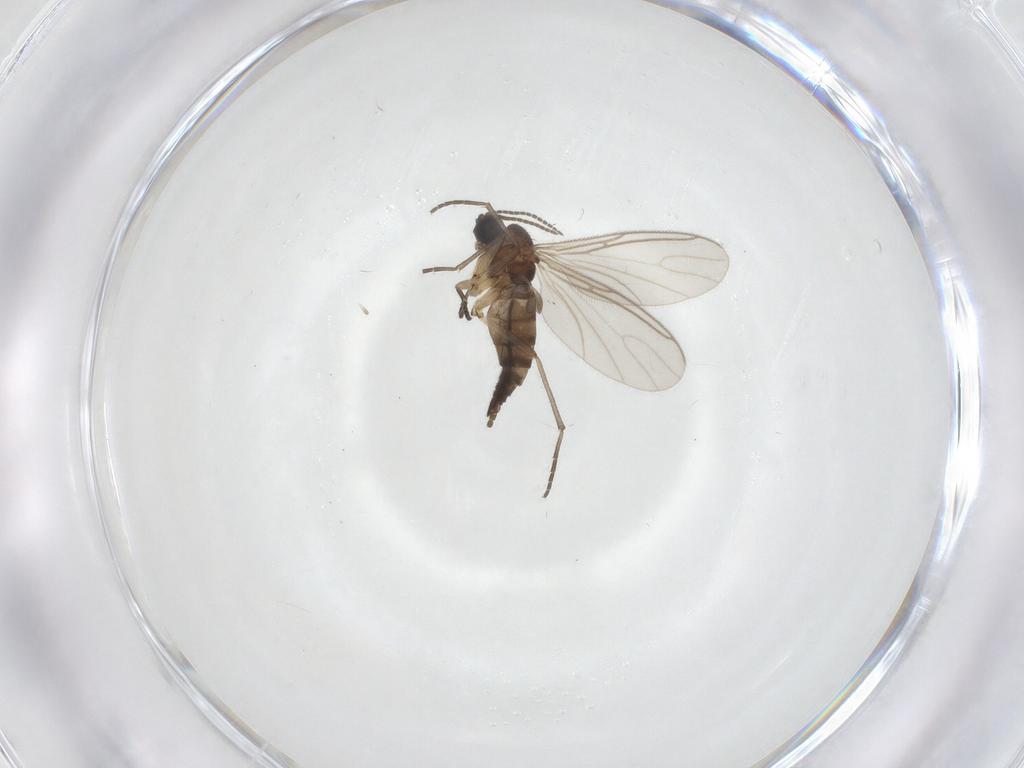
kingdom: Animalia
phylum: Arthropoda
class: Insecta
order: Diptera
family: Sciaridae
